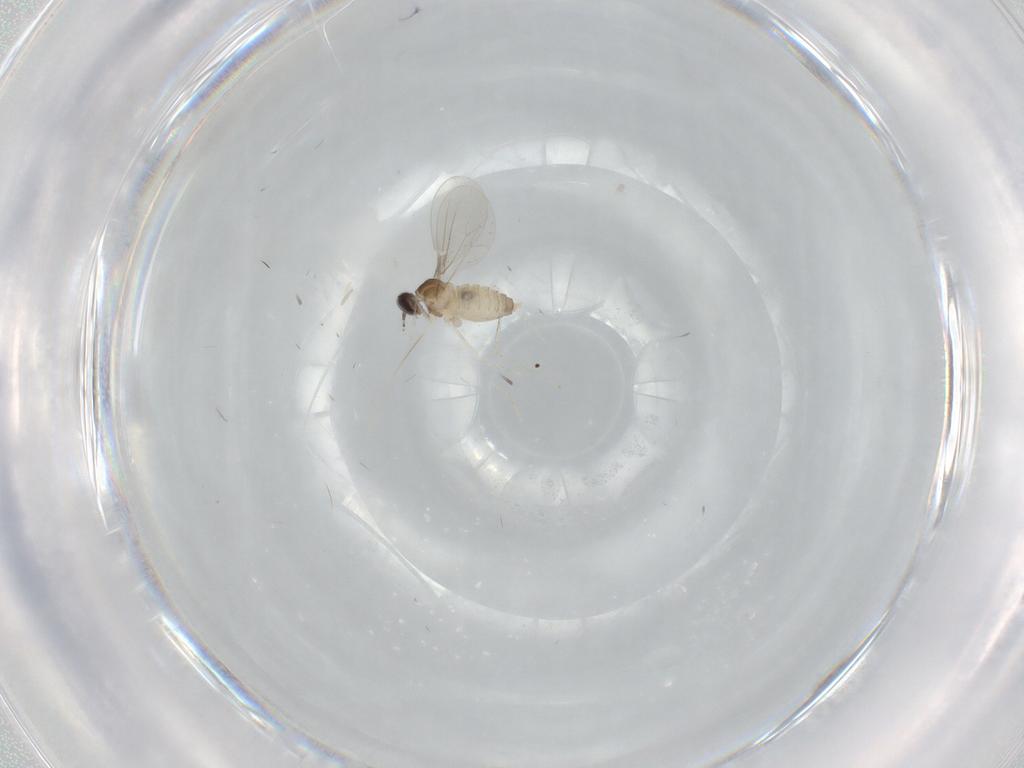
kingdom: Animalia
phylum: Arthropoda
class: Insecta
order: Diptera
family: Cecidomyiidae
